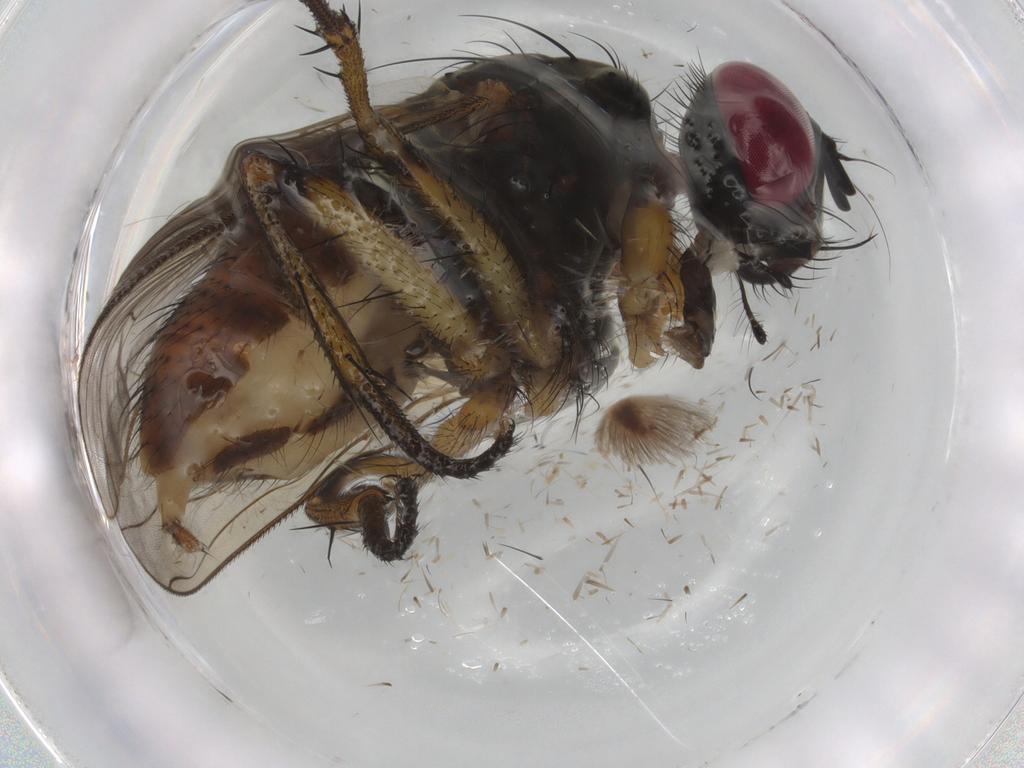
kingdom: Animalia
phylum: Arthropoda
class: Insecta
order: Diptera
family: Muscidae
